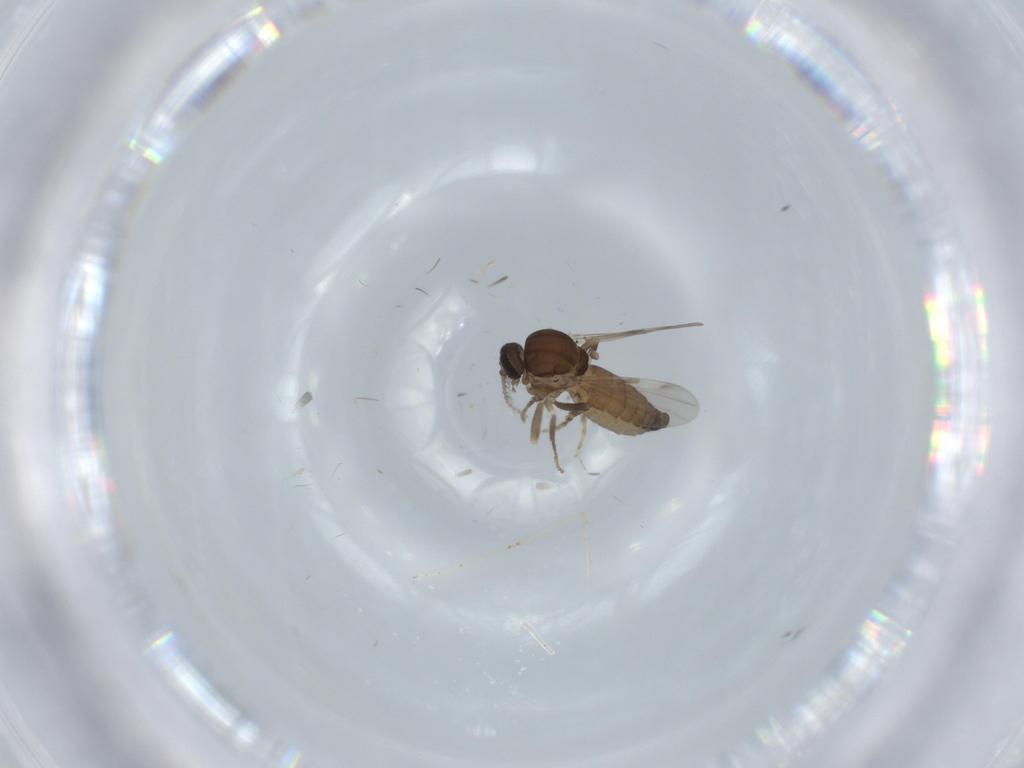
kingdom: Animalia
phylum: Arthropoda
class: Insecta
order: Diptera
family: Ceratopogonidae
